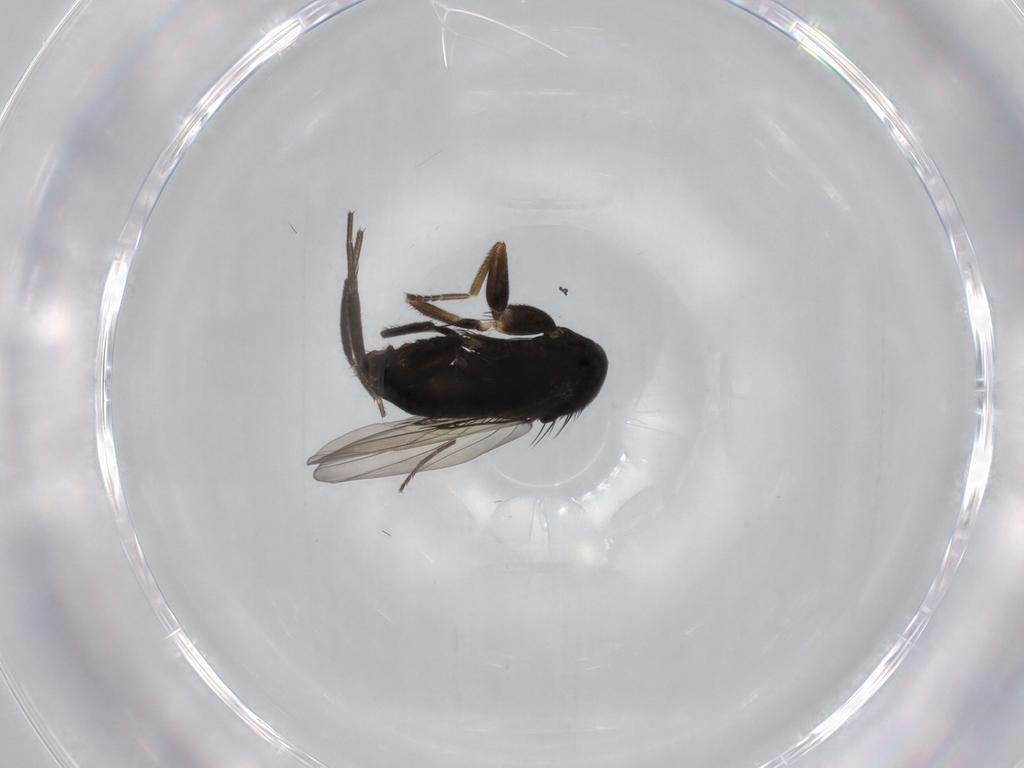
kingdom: Animalia
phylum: Arthropoda
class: Insecta
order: Diptera
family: Phoridae
